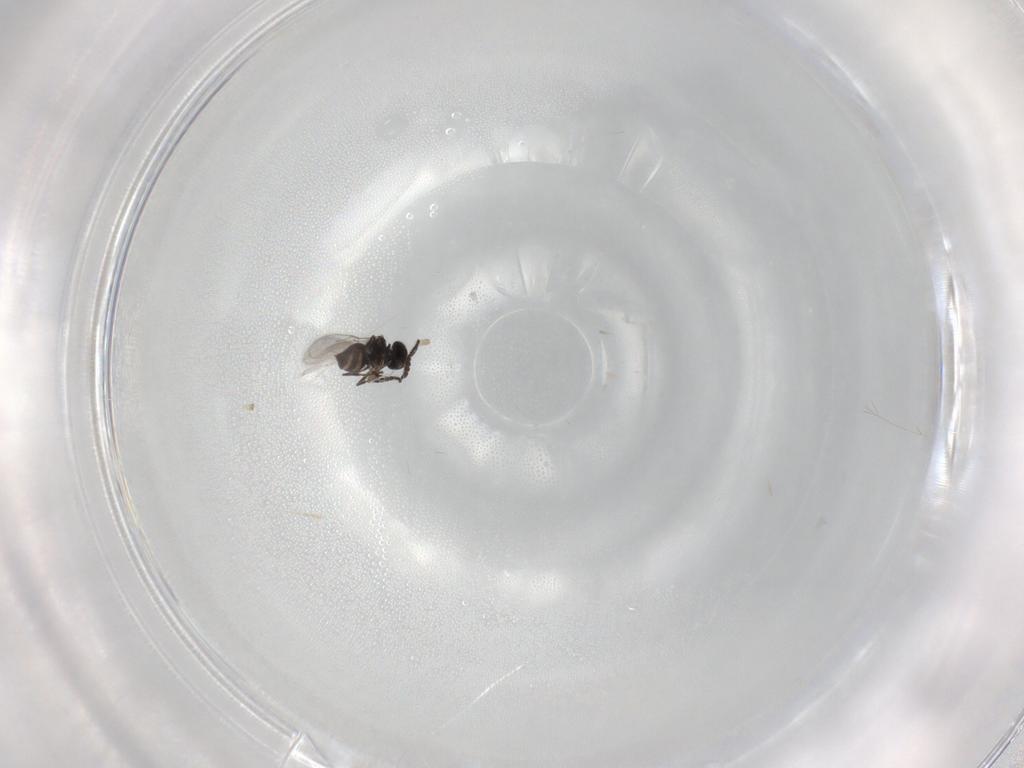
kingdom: Animalia
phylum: Arthropoda
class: Insecta
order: Hymenoptera
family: Scelionidae
